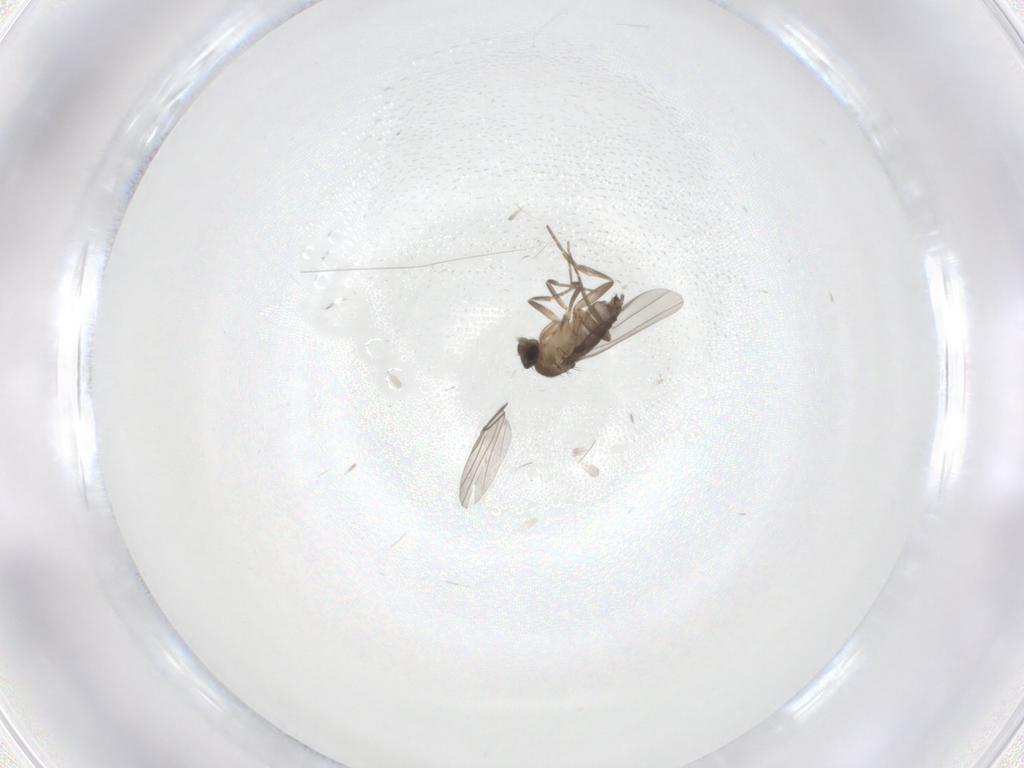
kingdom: Animalia
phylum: Arthropoda
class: Insecta
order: Diptera
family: Phoridae
